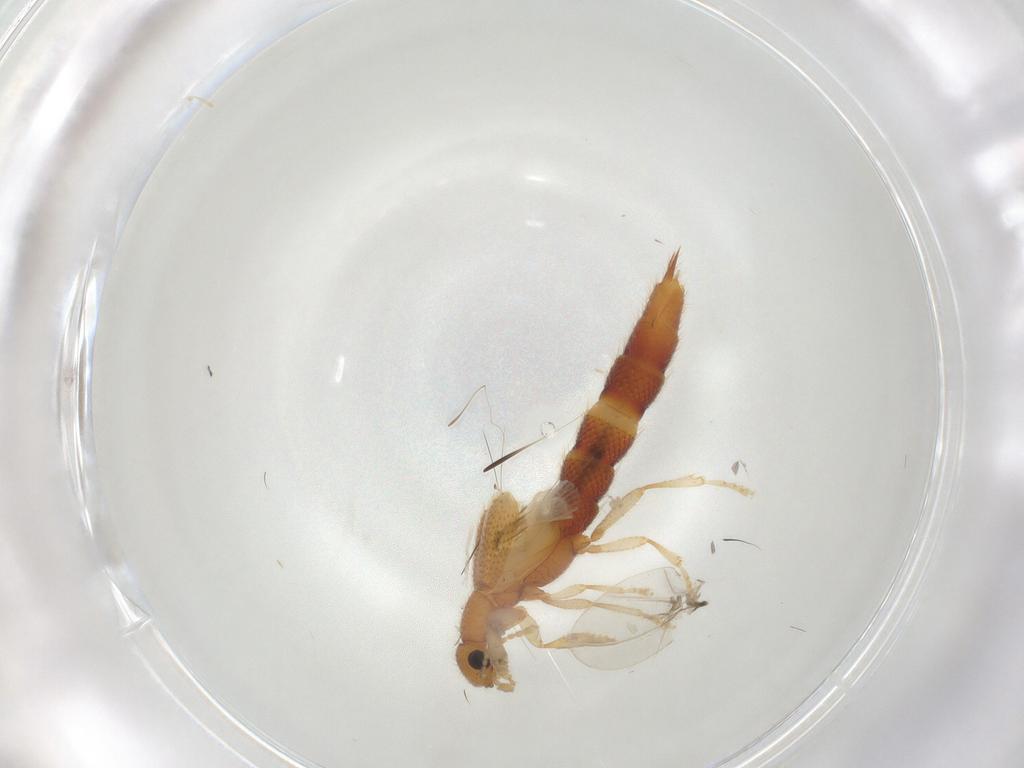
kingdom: Animalia
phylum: Arthropoda
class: Insecta
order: Coleoptera
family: Staphylinidae
